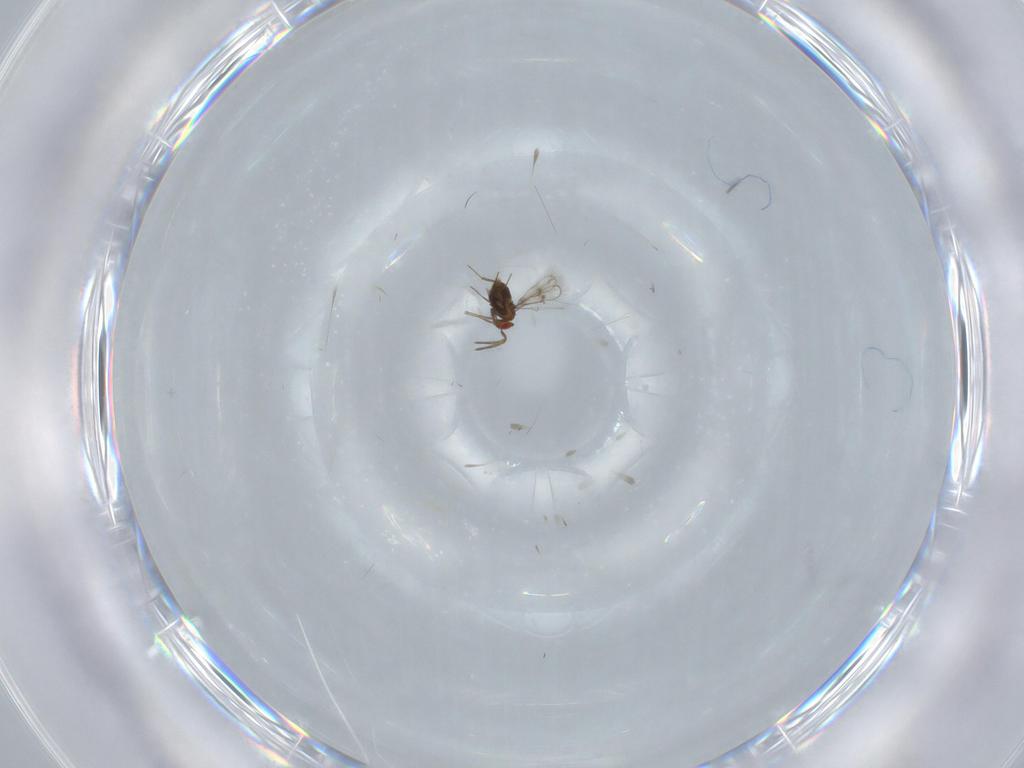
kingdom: Animalia
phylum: Arthropoda
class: Insecta
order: Hymenoptera
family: Trichogrammatidae
